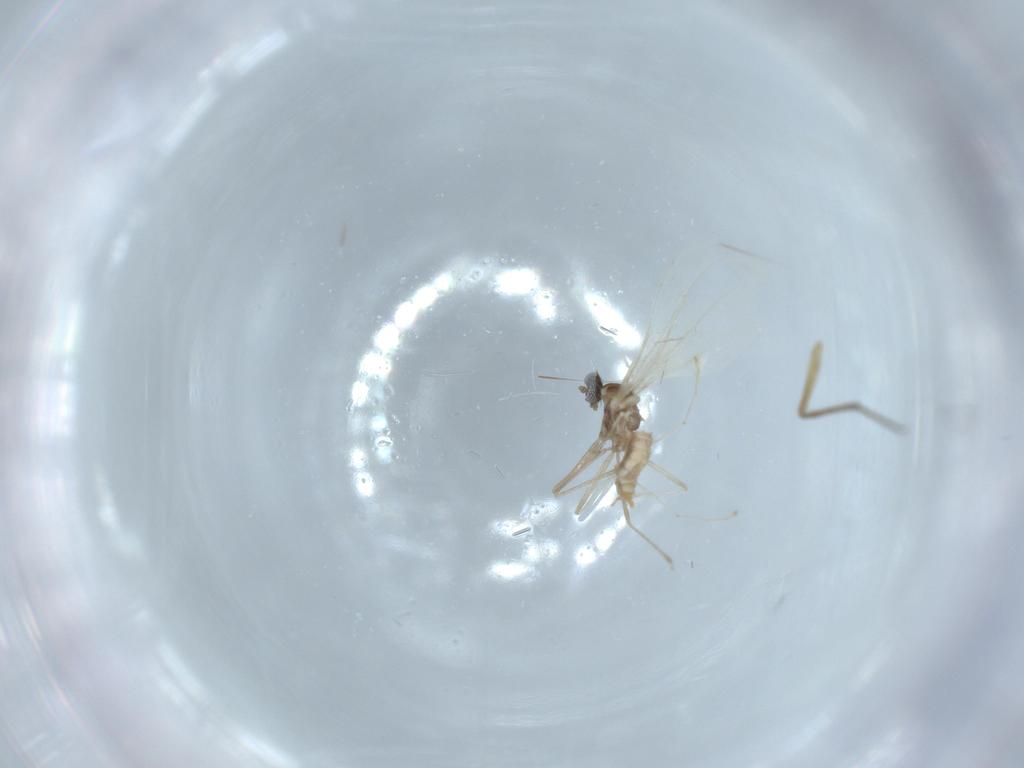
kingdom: Animalia
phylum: Arthropoda
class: Insecta
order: Diptera
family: Cecidomyiidae
